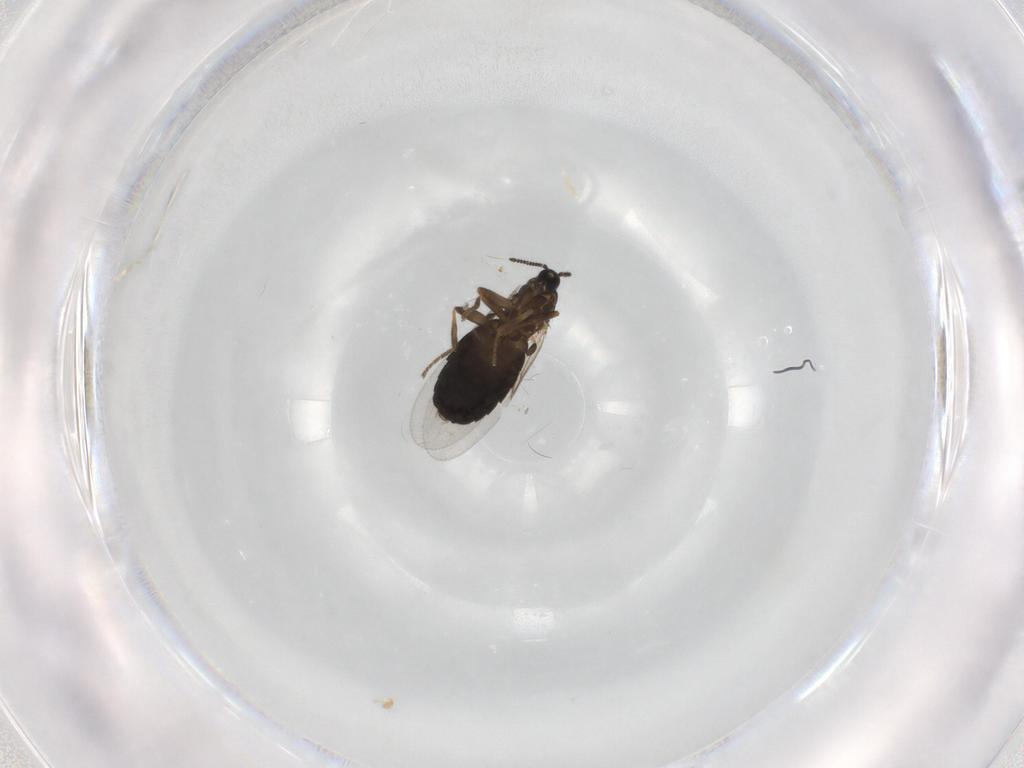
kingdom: Animalia
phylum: Arthropoda
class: Insecta
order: Diptera
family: Scatopsidae
